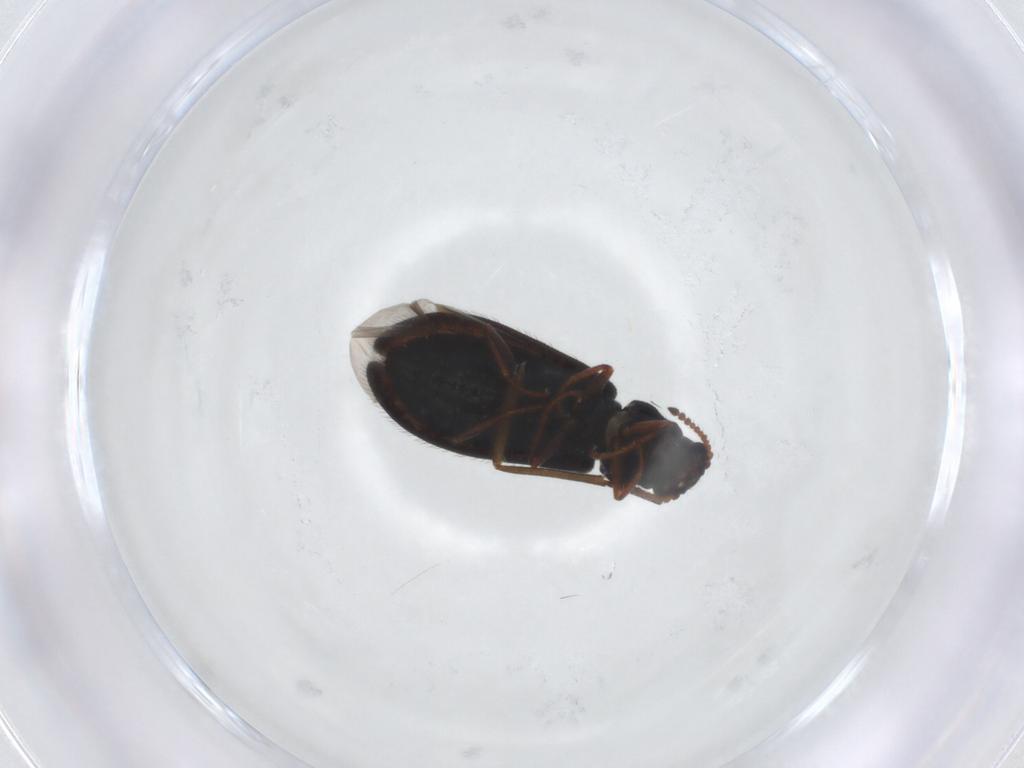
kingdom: Animalia
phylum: Arthropoda
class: Insecta
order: Coleoptera
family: Melyridae
